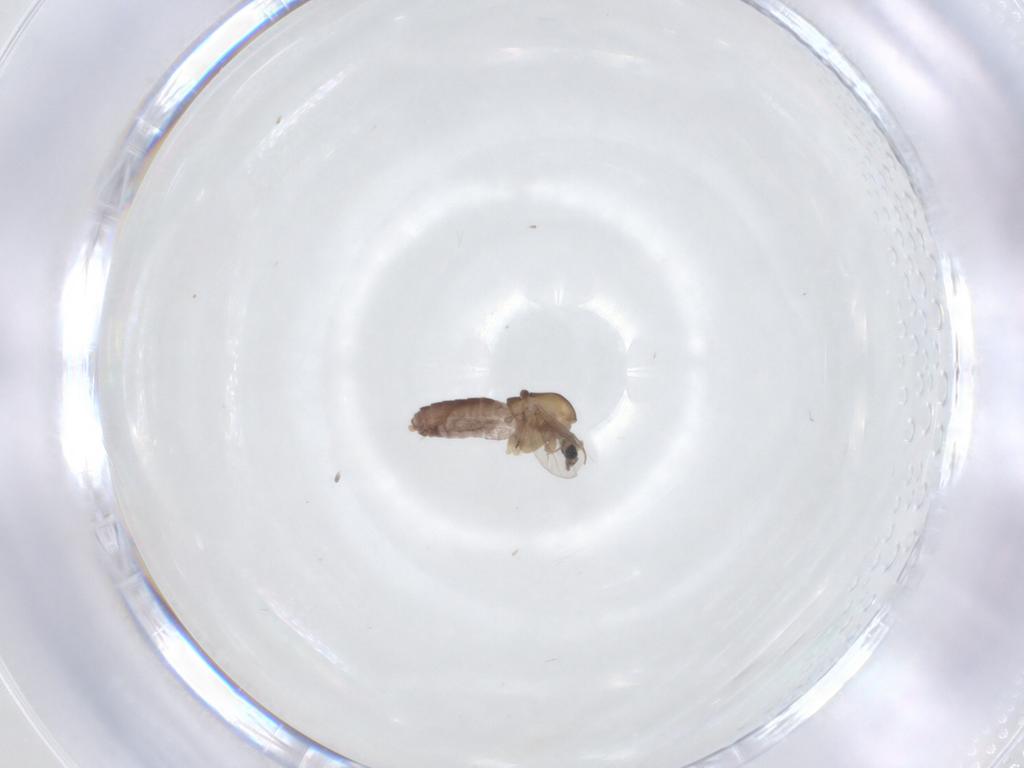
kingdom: Animalia
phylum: Arthropoda
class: Insecta
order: Diptera
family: Chironomidae
